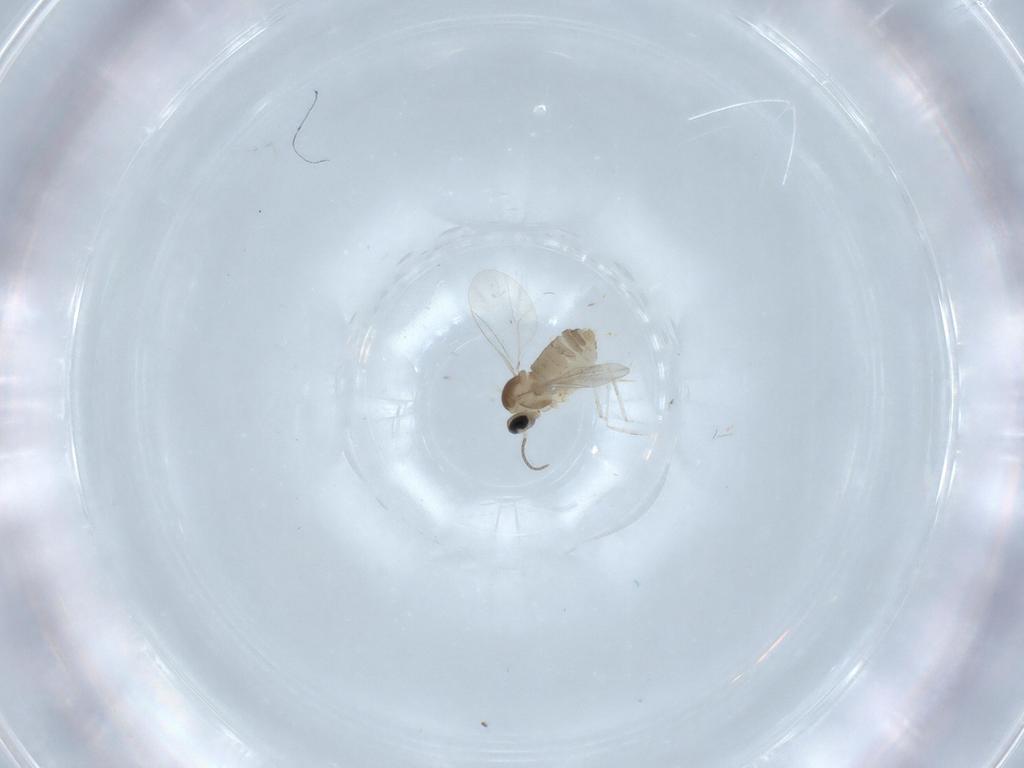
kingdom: Animalia
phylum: Arthropoda
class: Insecta
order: Diptera
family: Cecidomyiidae
